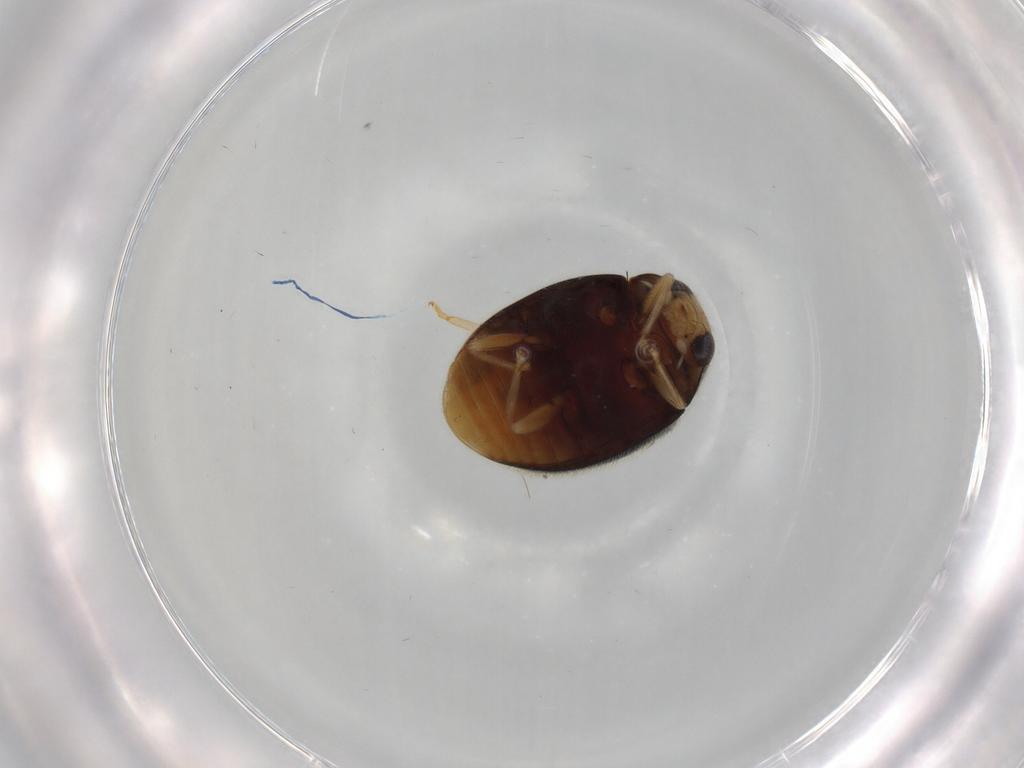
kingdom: Animalia
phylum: Arthropoda
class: Insecta
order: Coleoptera
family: Coccinellidae
